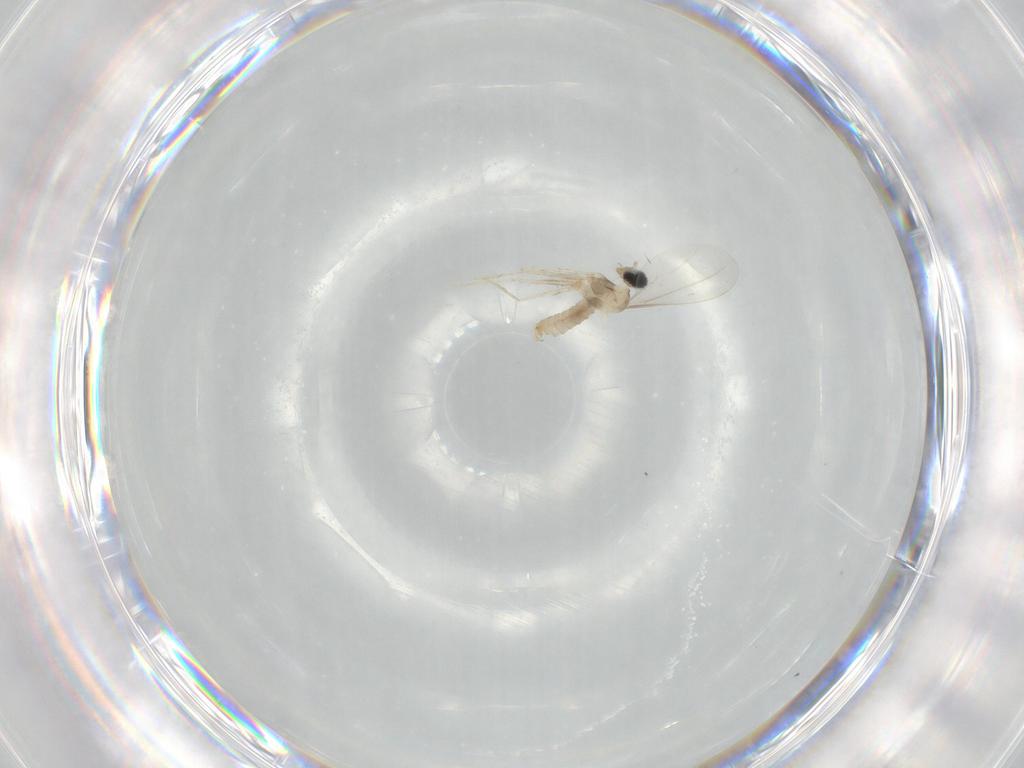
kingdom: Animalia
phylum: Arthropoda
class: Insecta
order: Diptera
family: Cecidomyiidae
